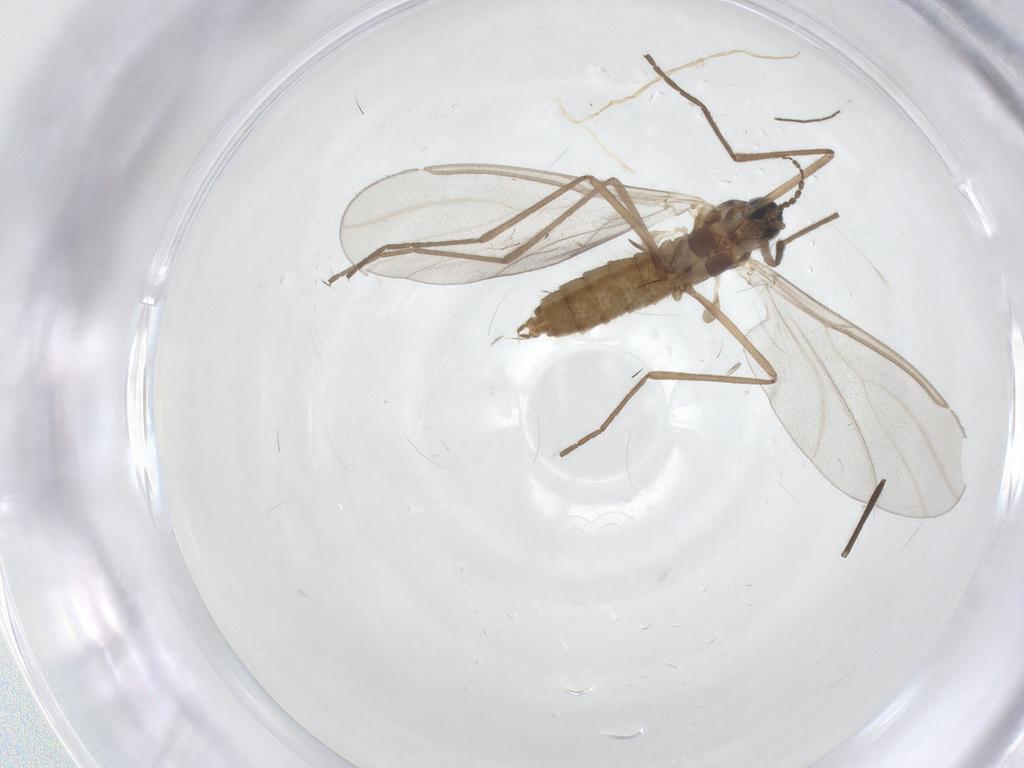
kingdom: Animalia
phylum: Arthropoda
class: Insecta
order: Diptera
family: Cecidomyiidae
